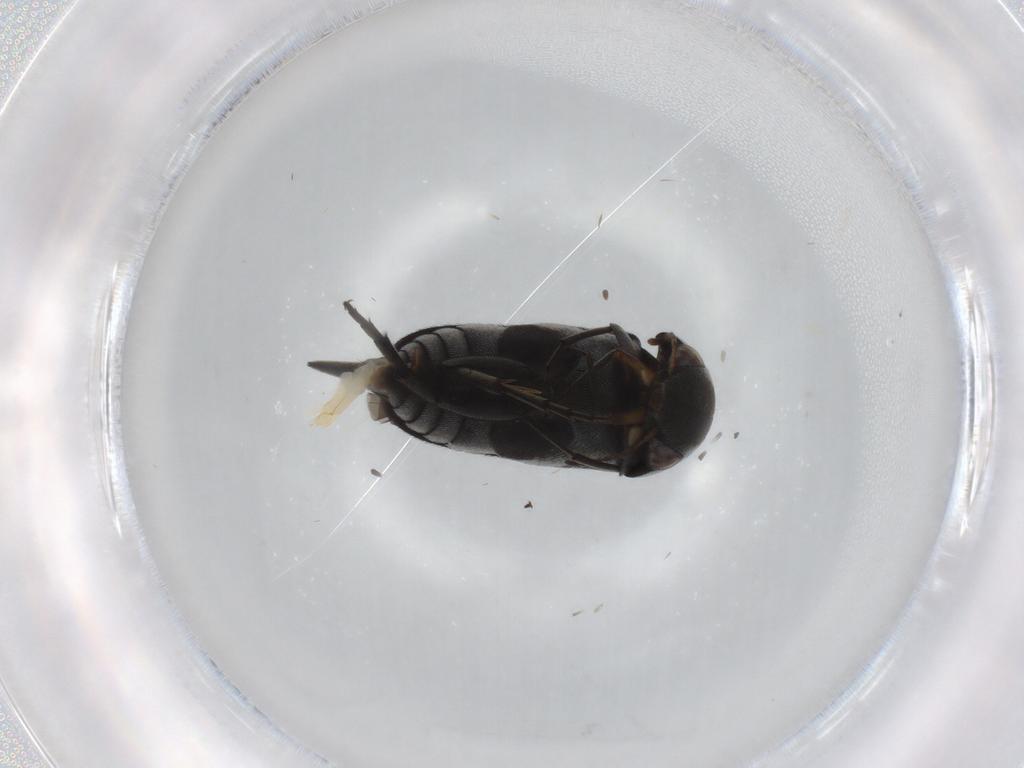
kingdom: Animalia
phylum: Arthropoda
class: Insecta
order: Coleoptera
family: Mordellidae
